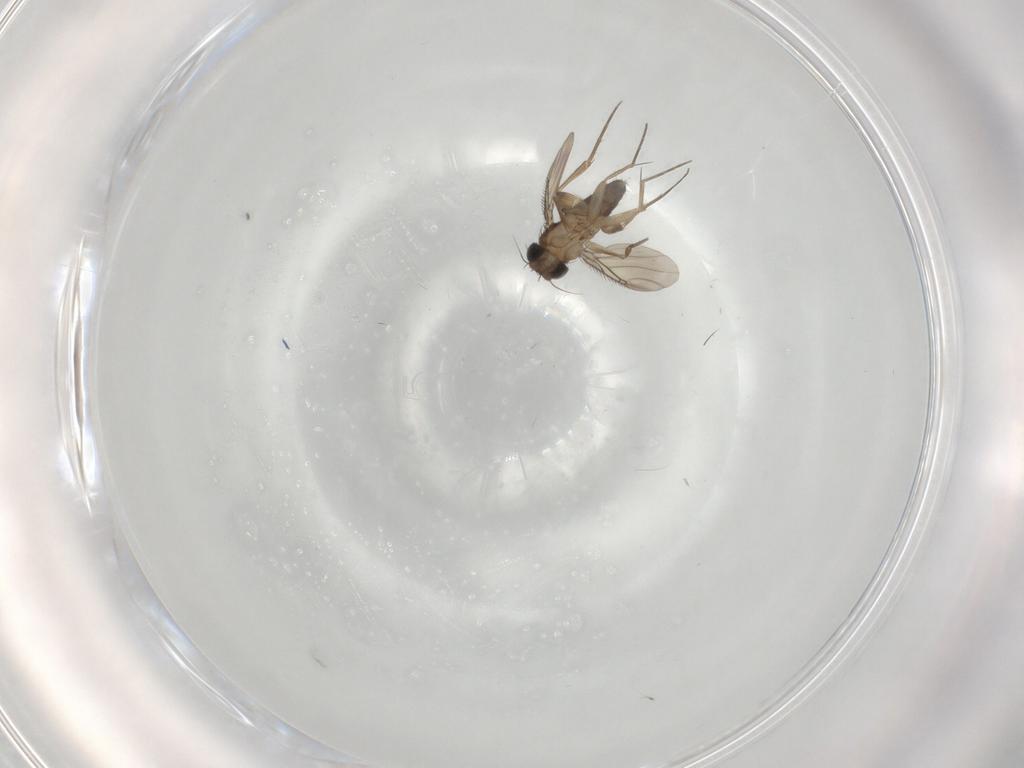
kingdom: Animalia
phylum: Arthropoda
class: Insecta
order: Diptera
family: Phoridae
